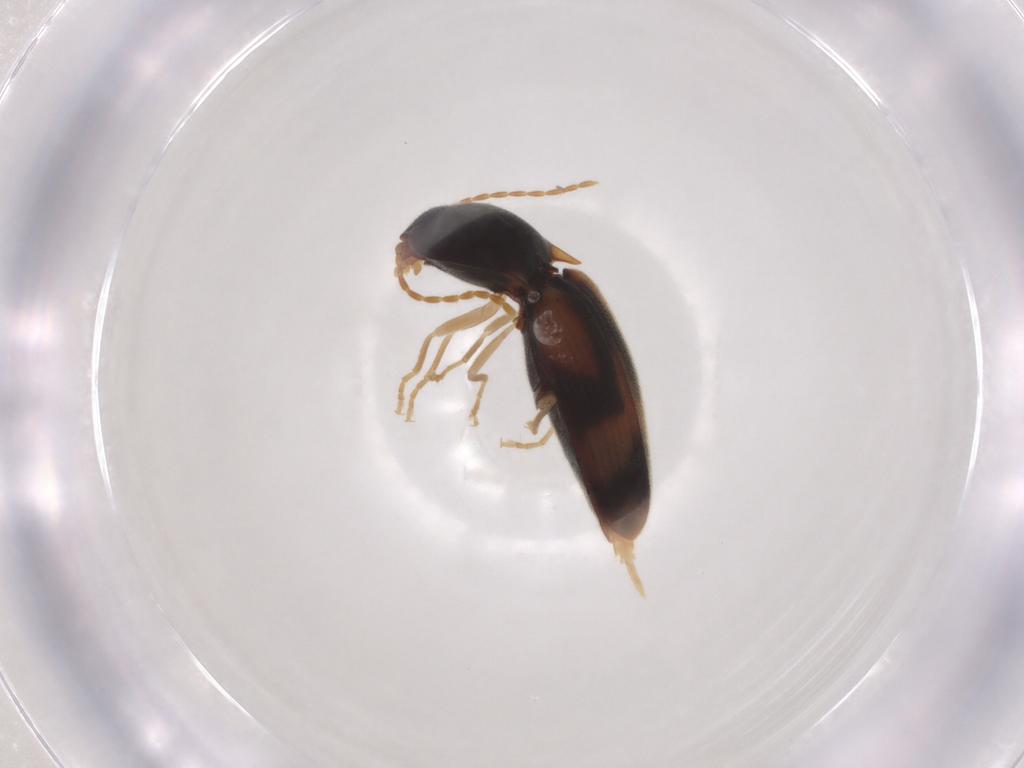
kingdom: Animalia
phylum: Arthropoda
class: Insecta
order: Coleoptera
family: Elateridae
